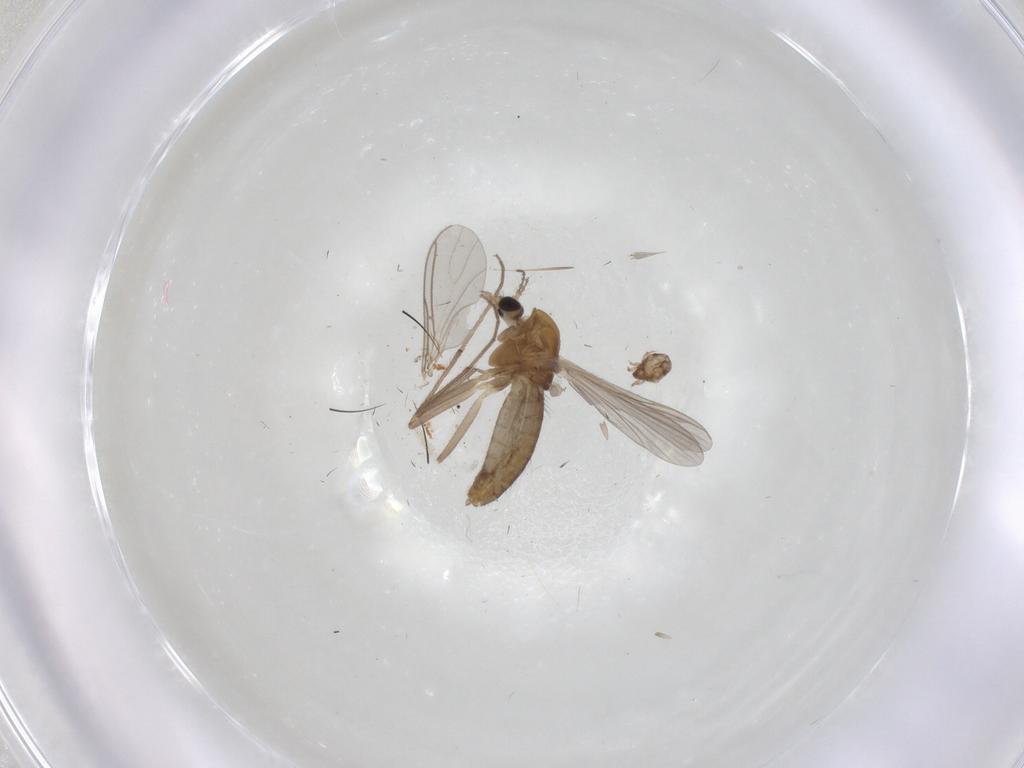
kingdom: Animalia
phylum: Arthropoda
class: Insecta
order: Diptera
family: Chironomidae
